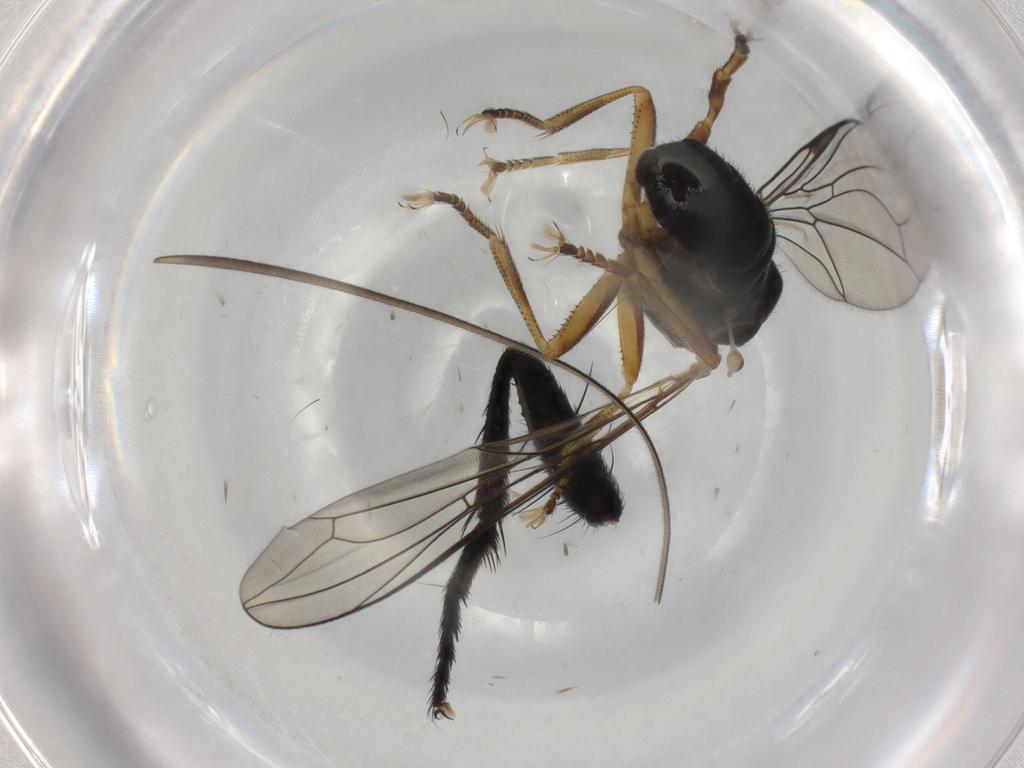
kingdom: Animalia
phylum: Arthropoda
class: Insecta
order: Diptera
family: Pipunculidae
